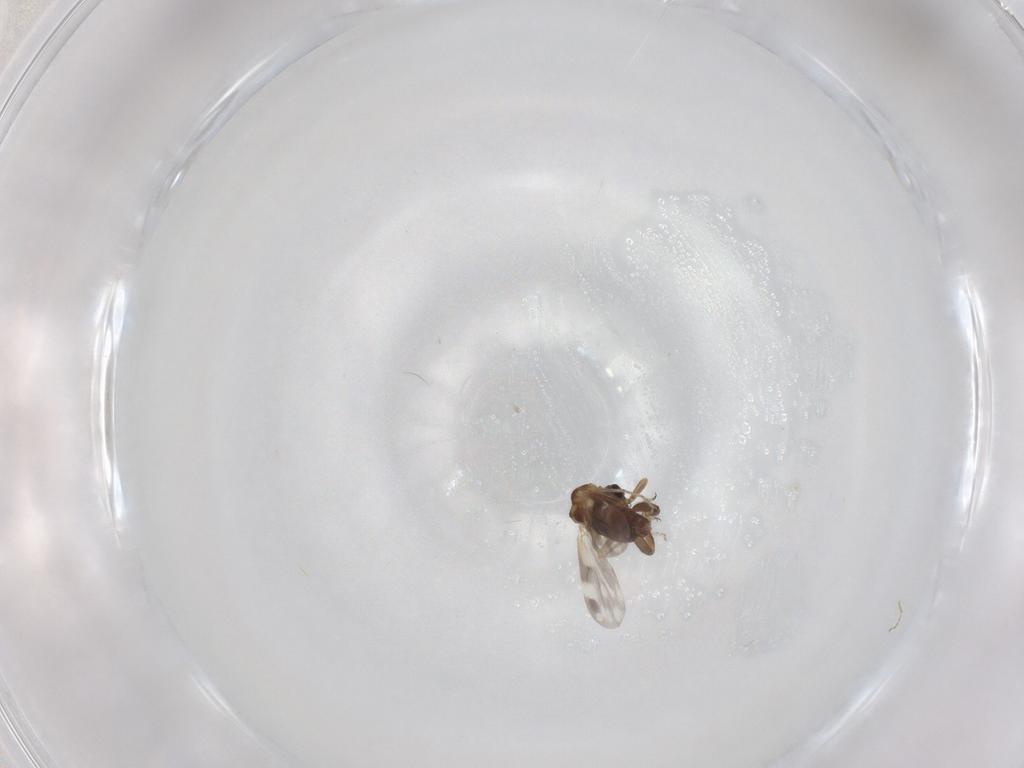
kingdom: Animalia
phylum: Arthropoda
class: Insecta
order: Diptera
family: Ceratopogonidae
